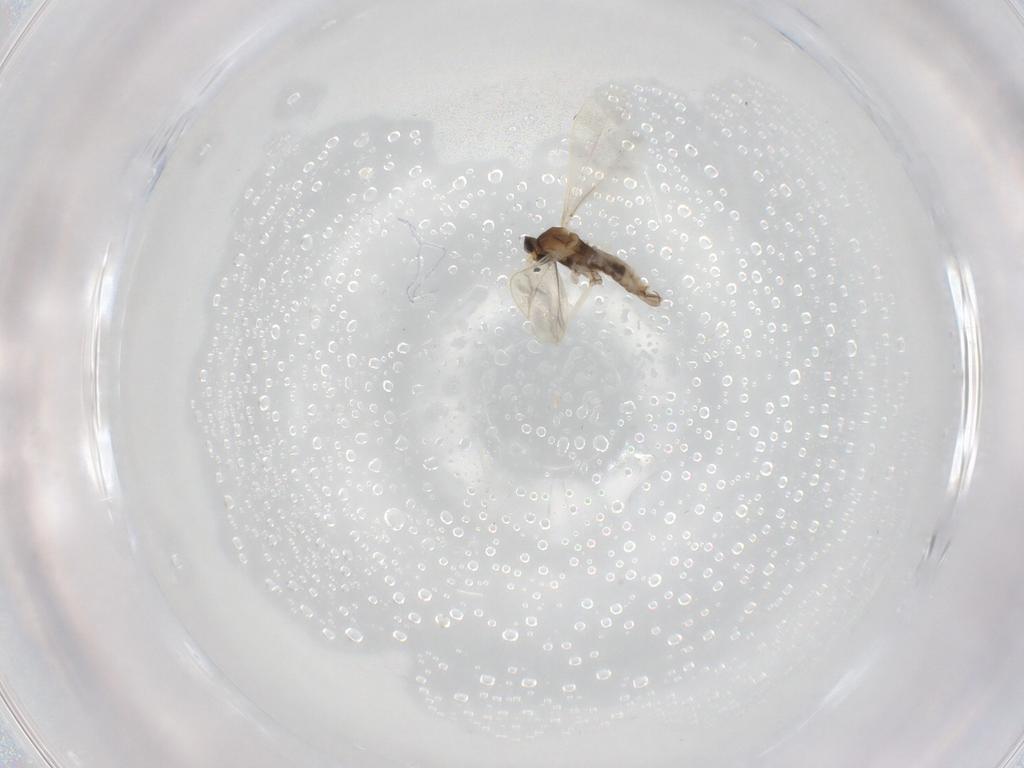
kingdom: Animalia
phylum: Arthropoda
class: Insecta
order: Diptera
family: Cecidomyiidae
